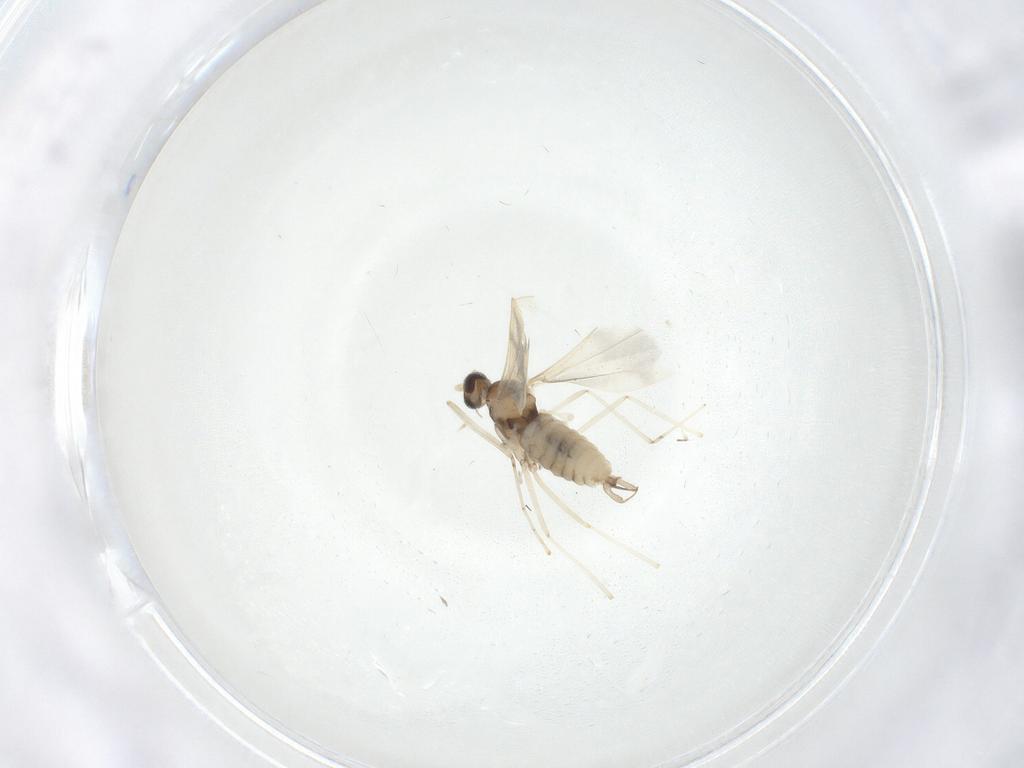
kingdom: Animalia
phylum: Arthropoda
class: Insecta
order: Diptera
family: Cecidomyiidae
